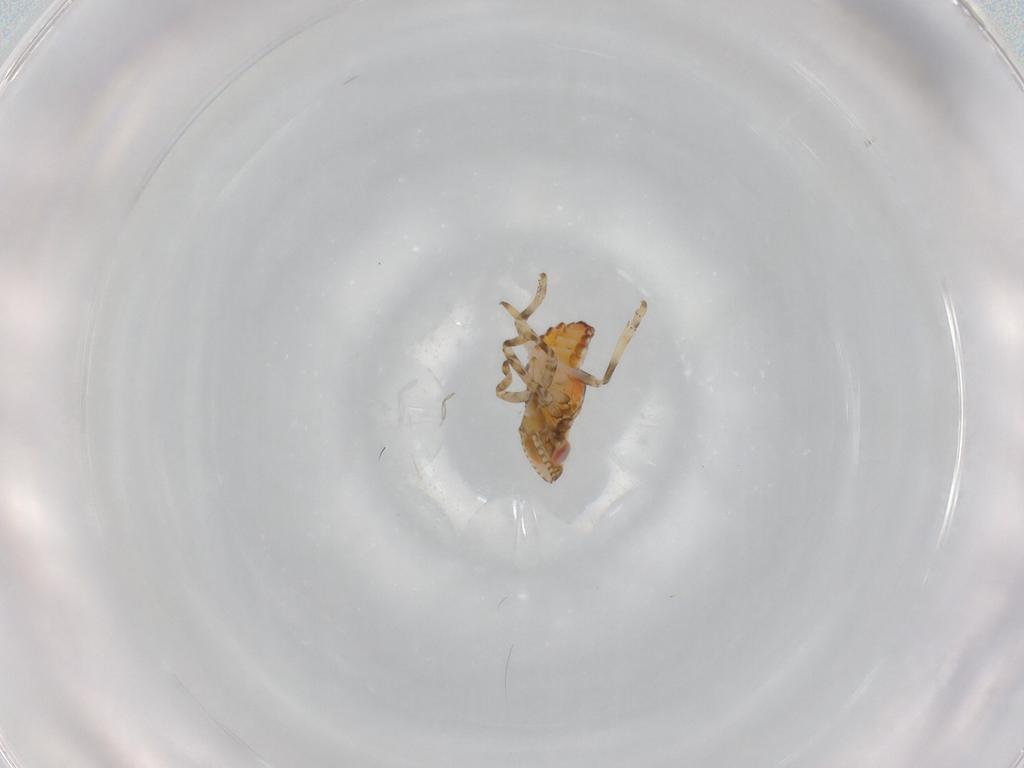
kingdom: Animalia
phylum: Arthropoda
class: Insecta
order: Hemiptera
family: Tropiduchidae
